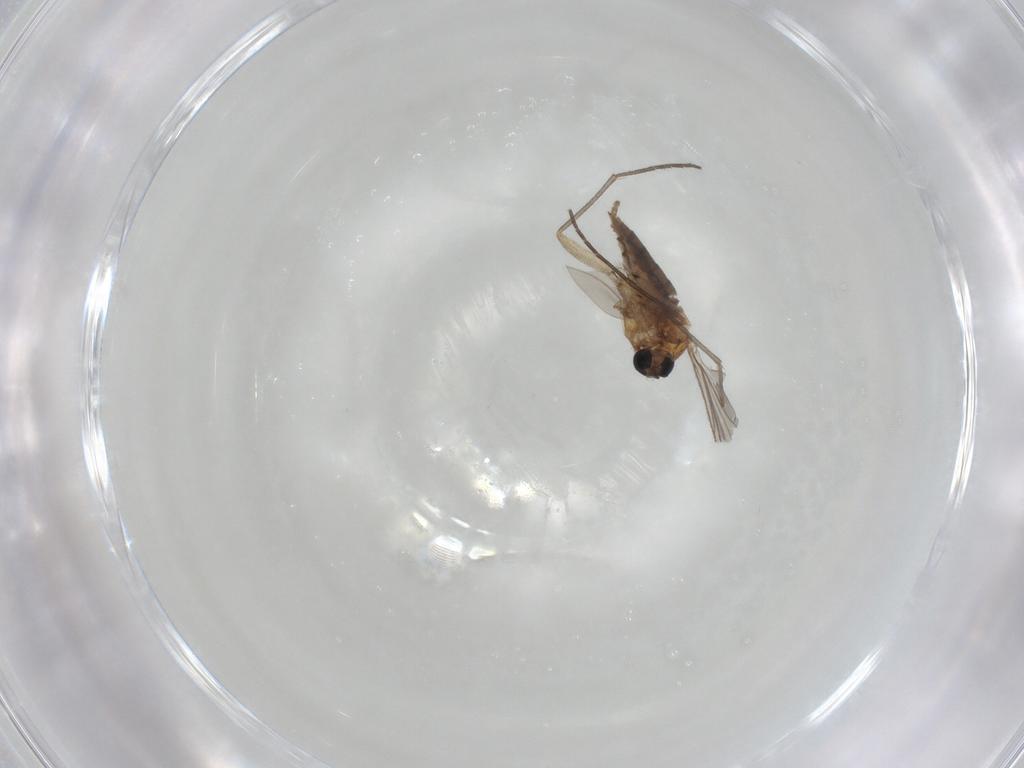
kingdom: Animalia
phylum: Arthropoda
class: Insecta
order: Diptera
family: Sciaridae
